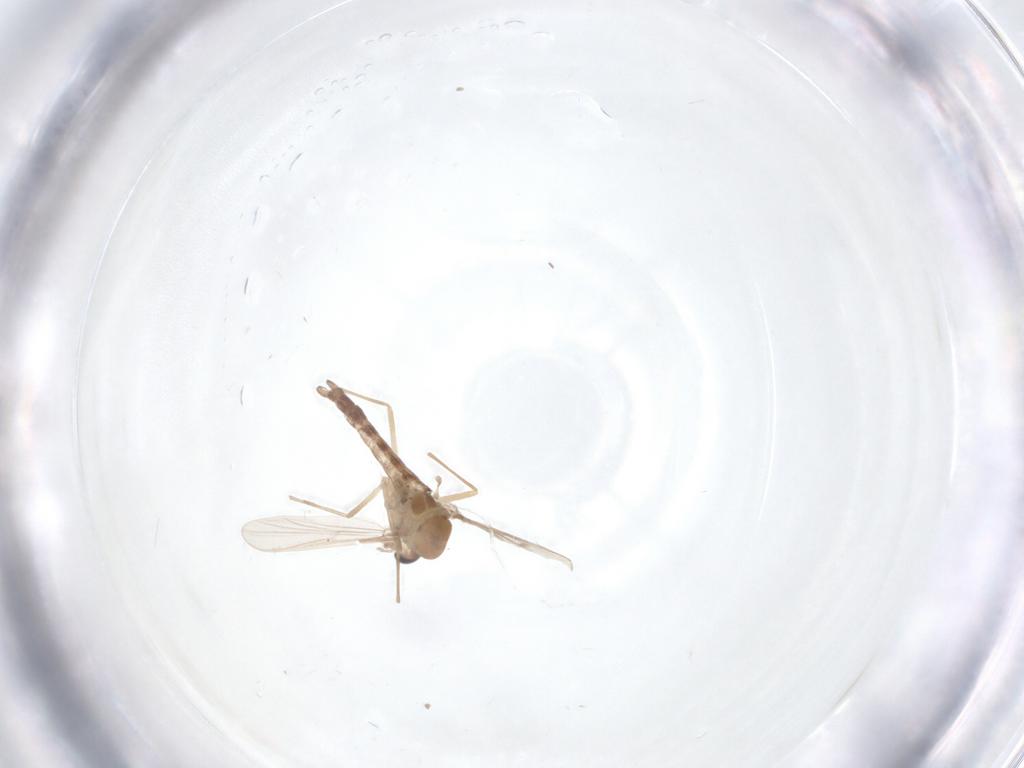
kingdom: Animalia
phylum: Arthropoda
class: Insecta
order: Diptera
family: Chironomidae
